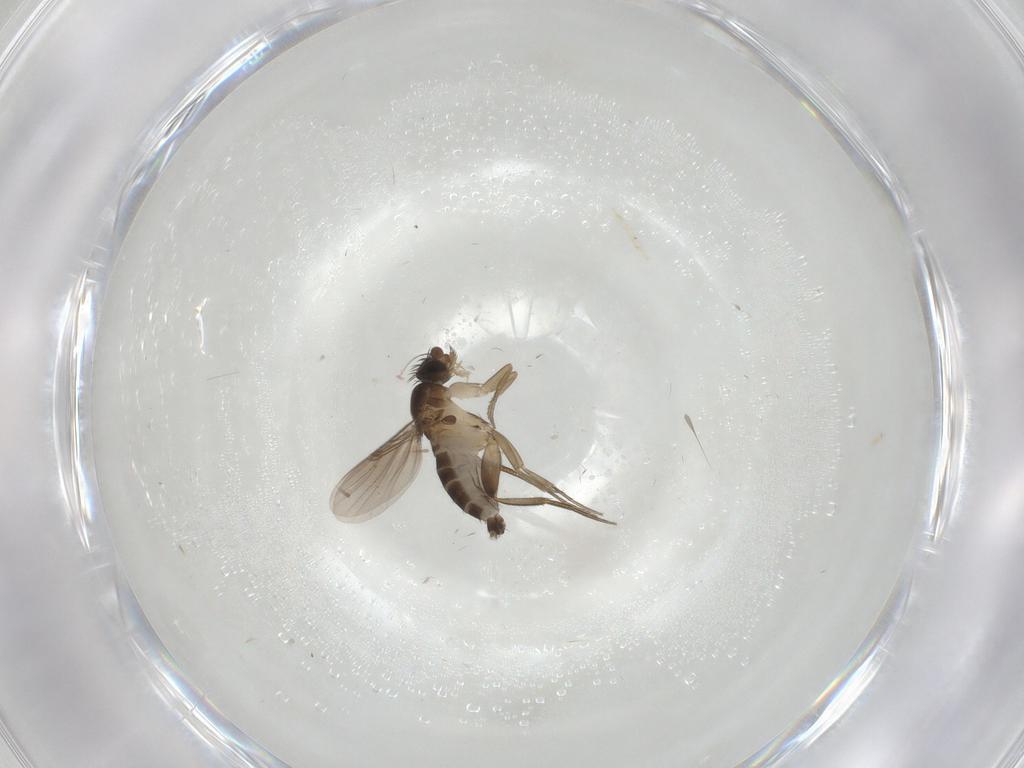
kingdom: Animalia
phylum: Arthropoda
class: Insecta
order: Diptera
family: Phoridae
